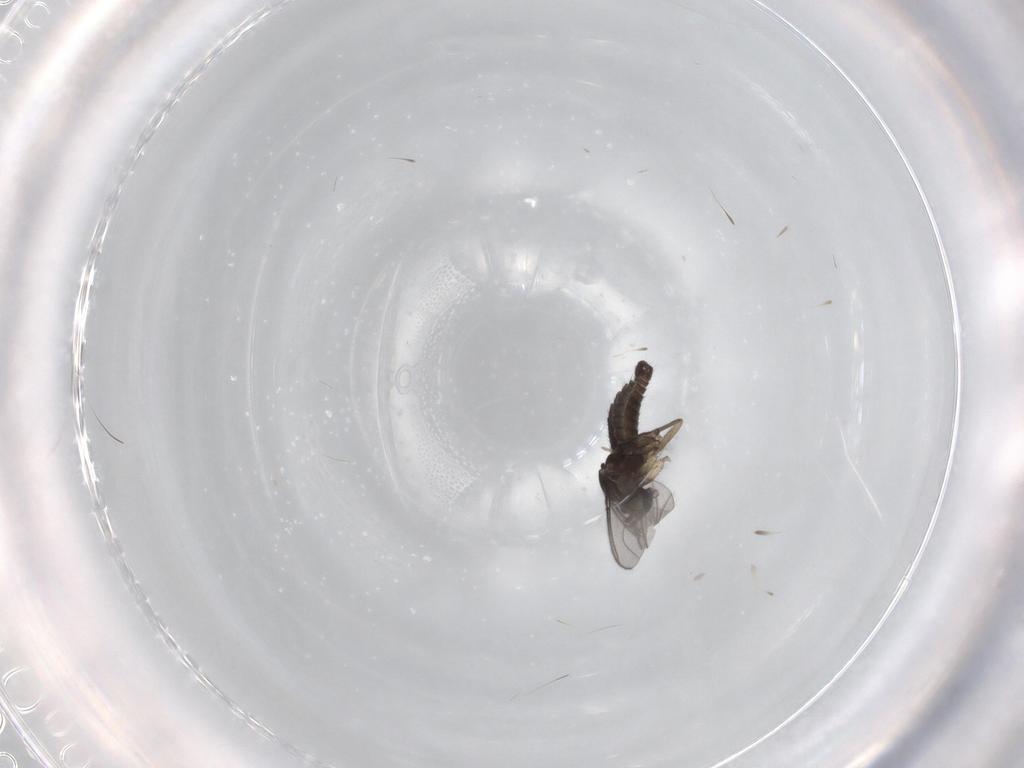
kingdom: Animalia
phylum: Arthropoda
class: Insecta
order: Diptera
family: Sciaridae
